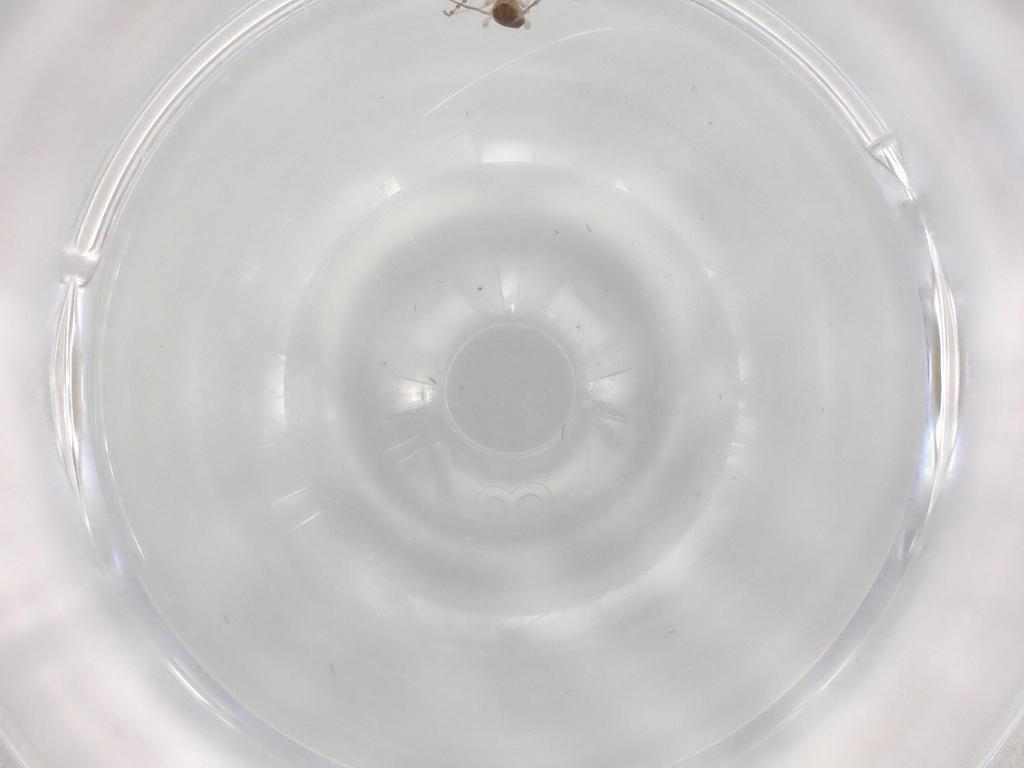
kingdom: Animalia
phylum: Arthropoda
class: Insecta
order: Diptera
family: Cecidomyiidae
